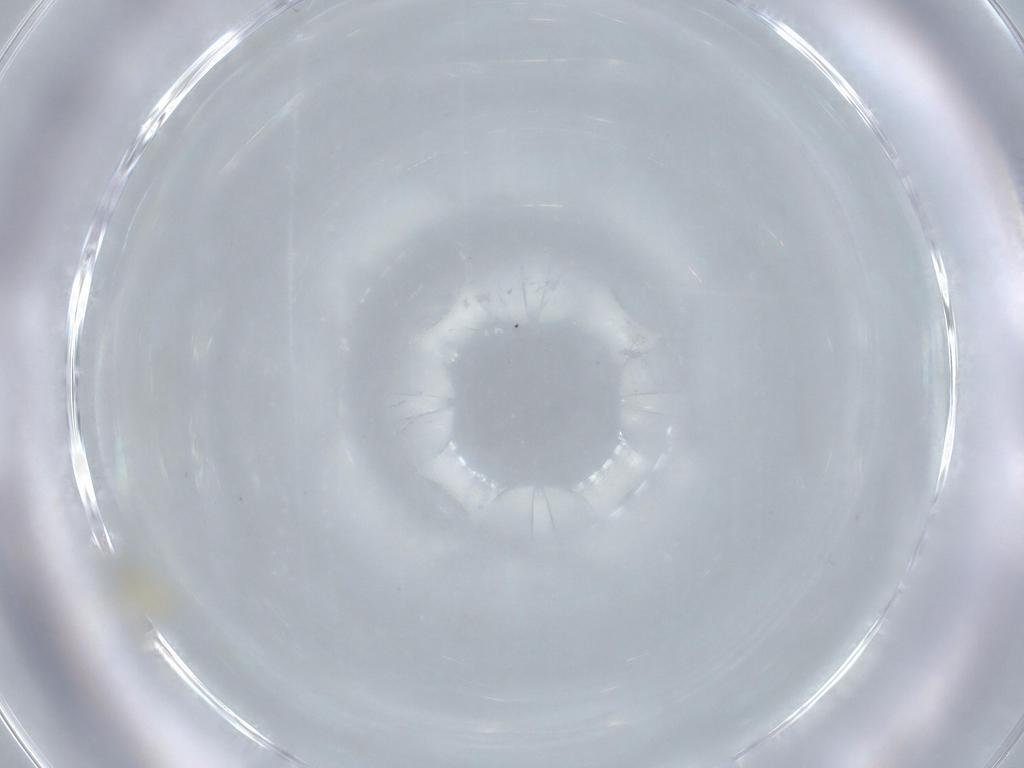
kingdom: Animalia
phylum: Arthropoda
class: Insecta
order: Diptera
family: Cecidomyiidae
